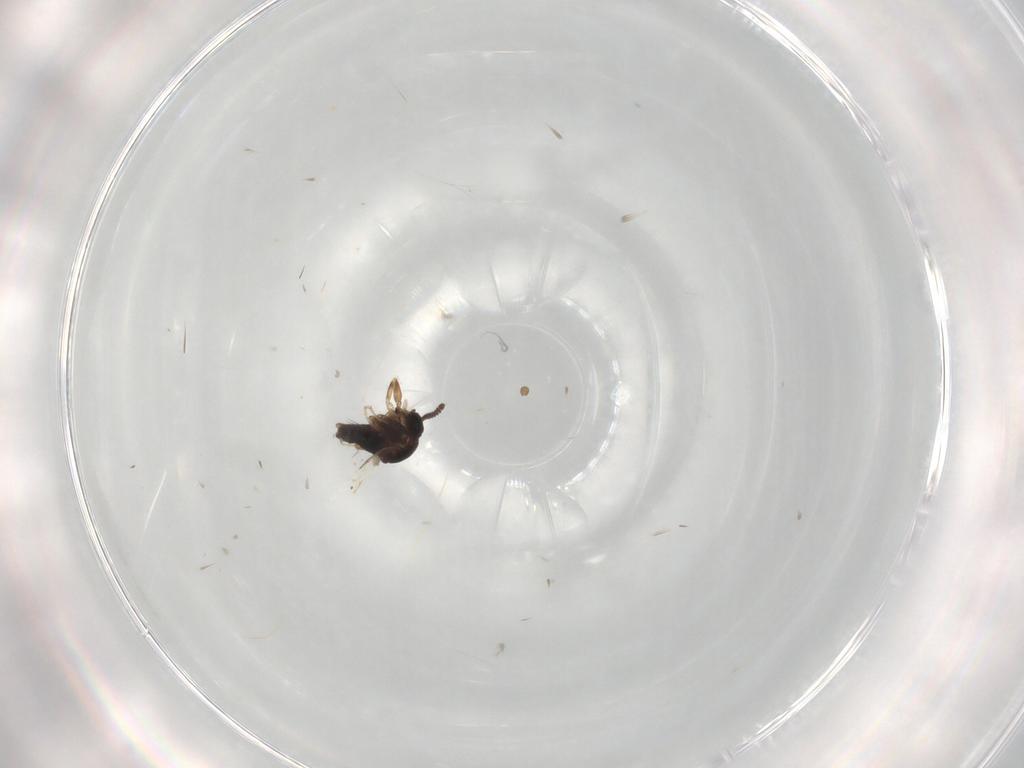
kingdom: Animalia
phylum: Arthropoda
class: Insecta
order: Diptera
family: Scatopsidae
